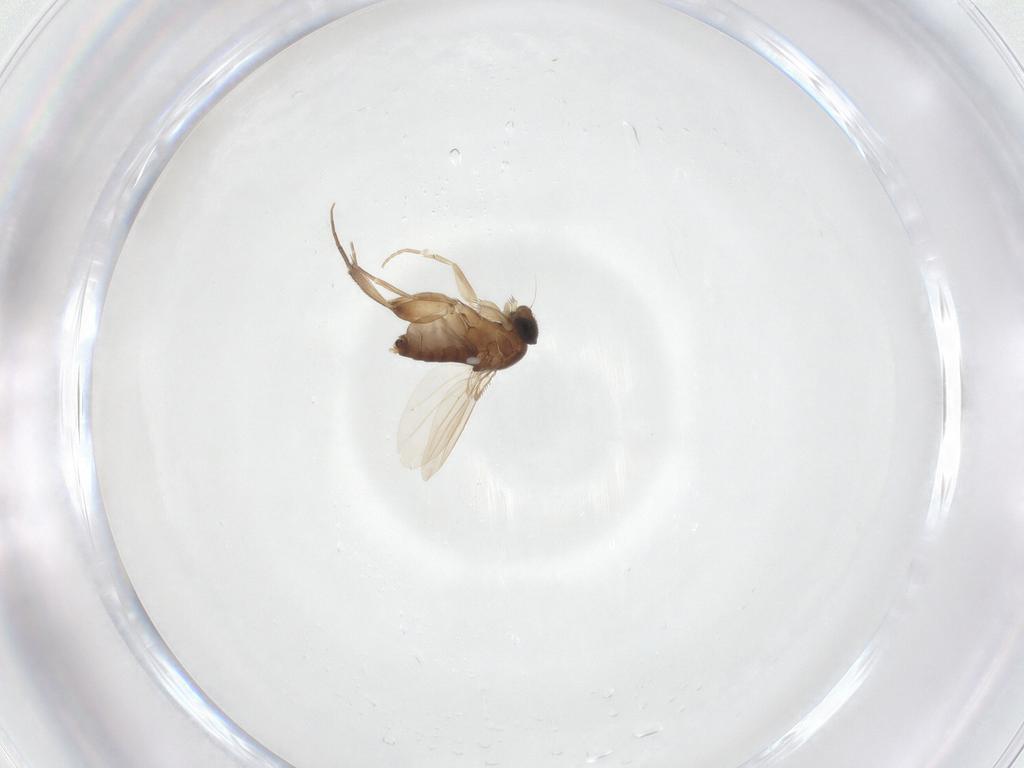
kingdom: Animalia
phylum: Arthropoda
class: Insecta
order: Diptera
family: Phoridae
